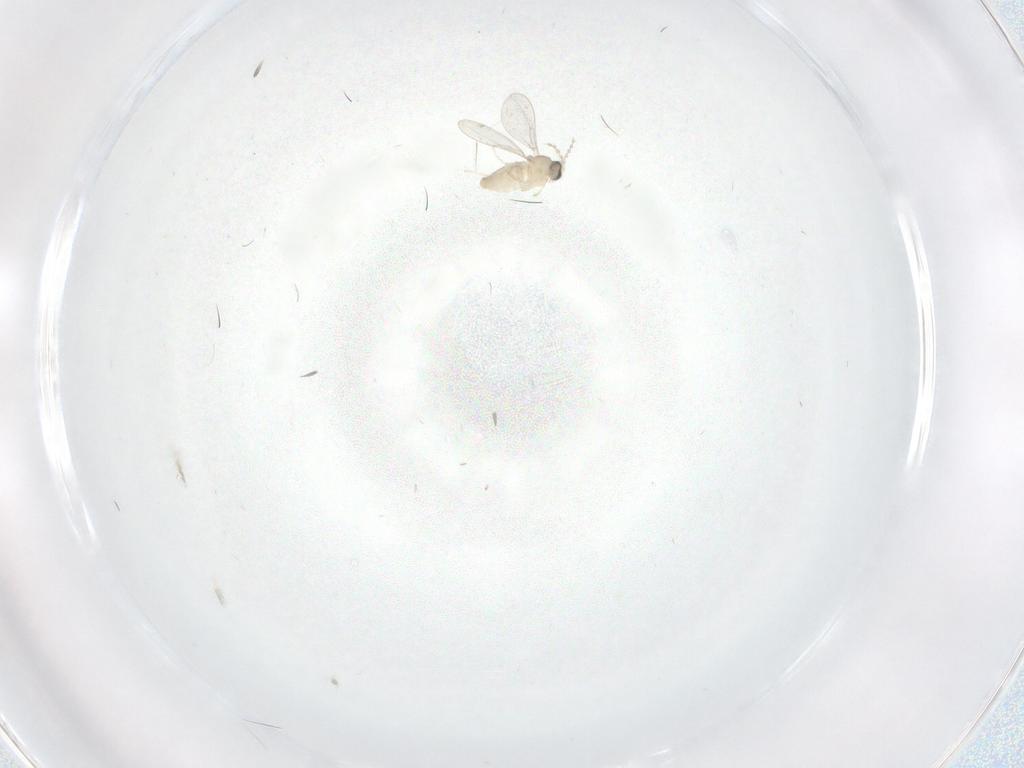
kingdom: Animalia
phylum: Arthropoda
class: Insecta
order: Diptera
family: Cecidomyiidae
